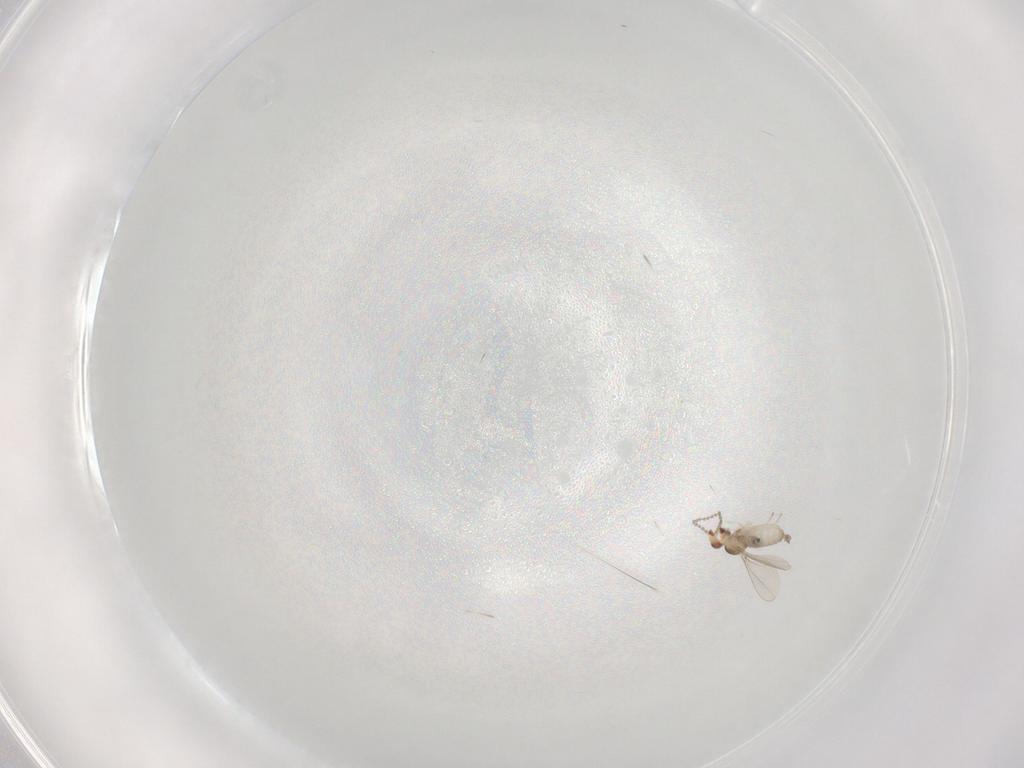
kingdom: Animalia
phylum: Arthropoda
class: Insecta
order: Diptera
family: Cecidomyiidae
